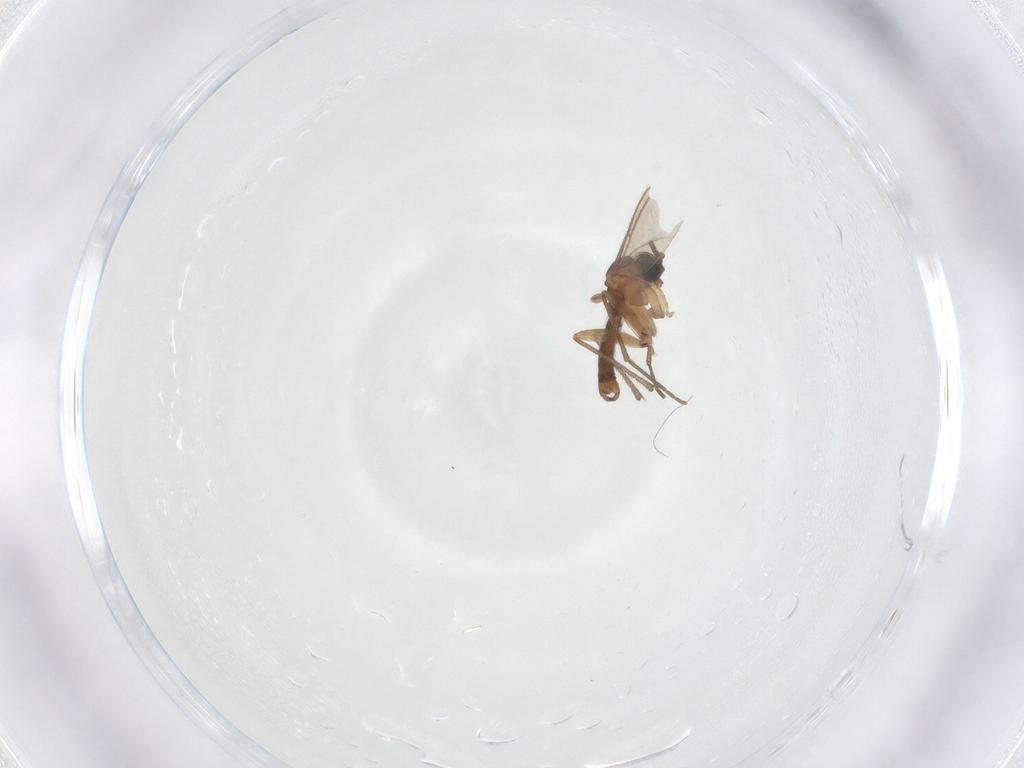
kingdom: Animalia
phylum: Arthropoda
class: Insecta
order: Diptera
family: Sciaridae
